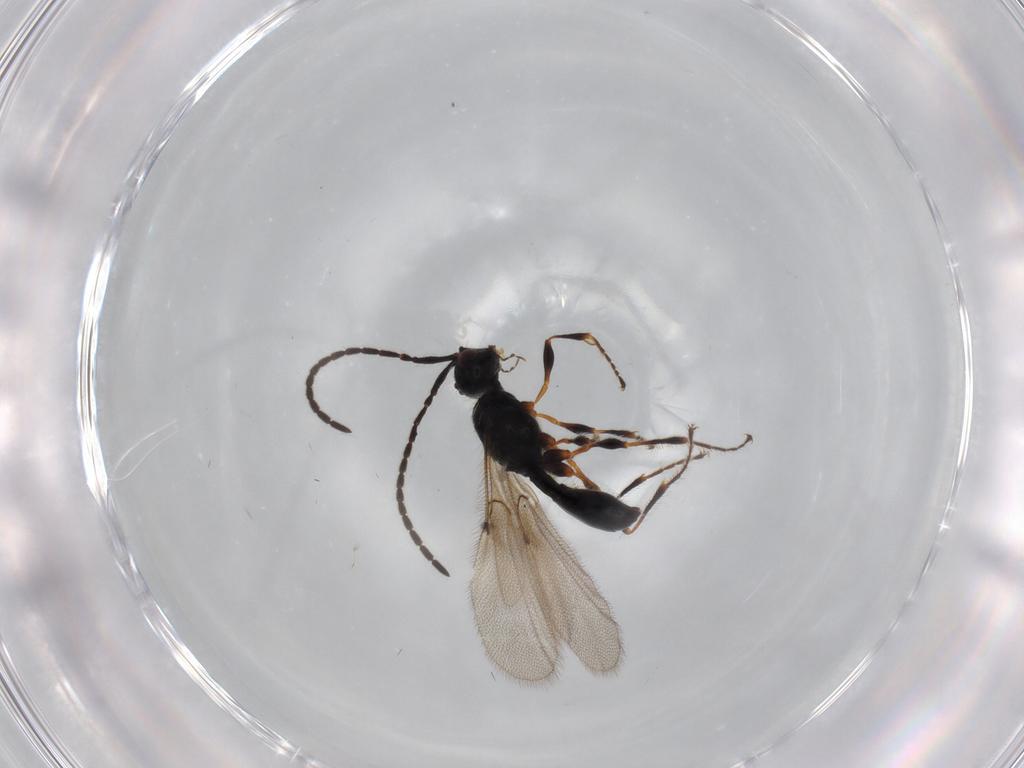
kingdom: Animalia
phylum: Arthropoda
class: Insecta
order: Hymenoptera
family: Diapriidae
